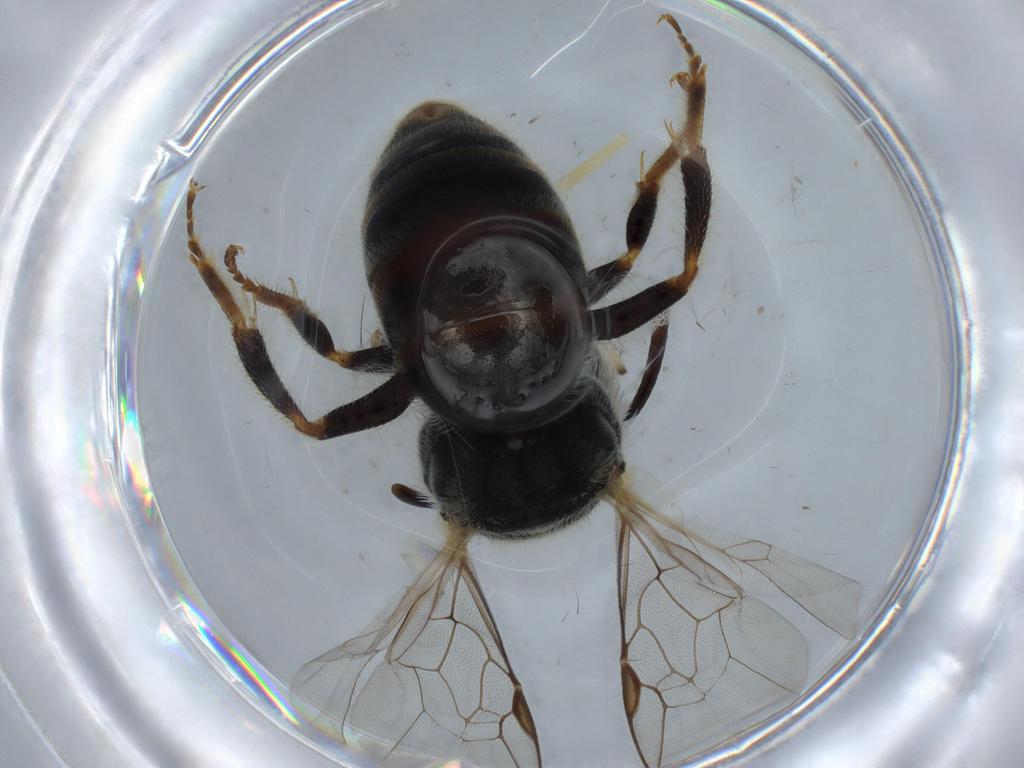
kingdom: Animalia
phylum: Arthropoda
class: Insecta
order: Hymenoptera
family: Halictidae
